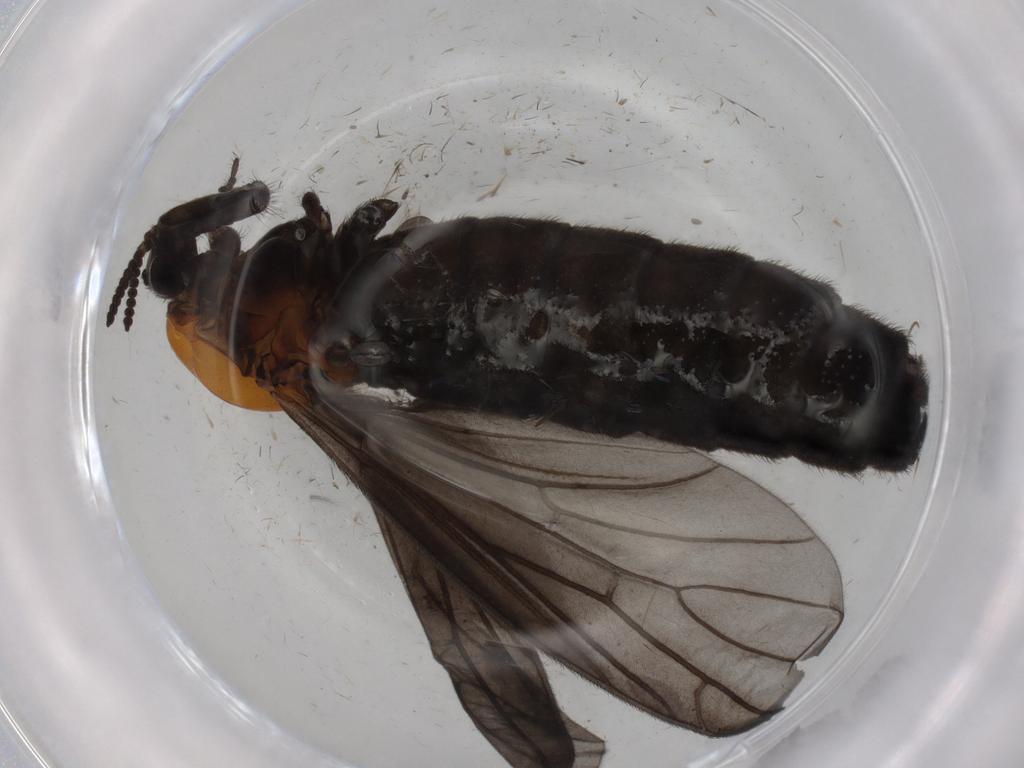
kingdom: Animalia
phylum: Arthropoda
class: Insecta
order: Diptera
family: Bibionidae
